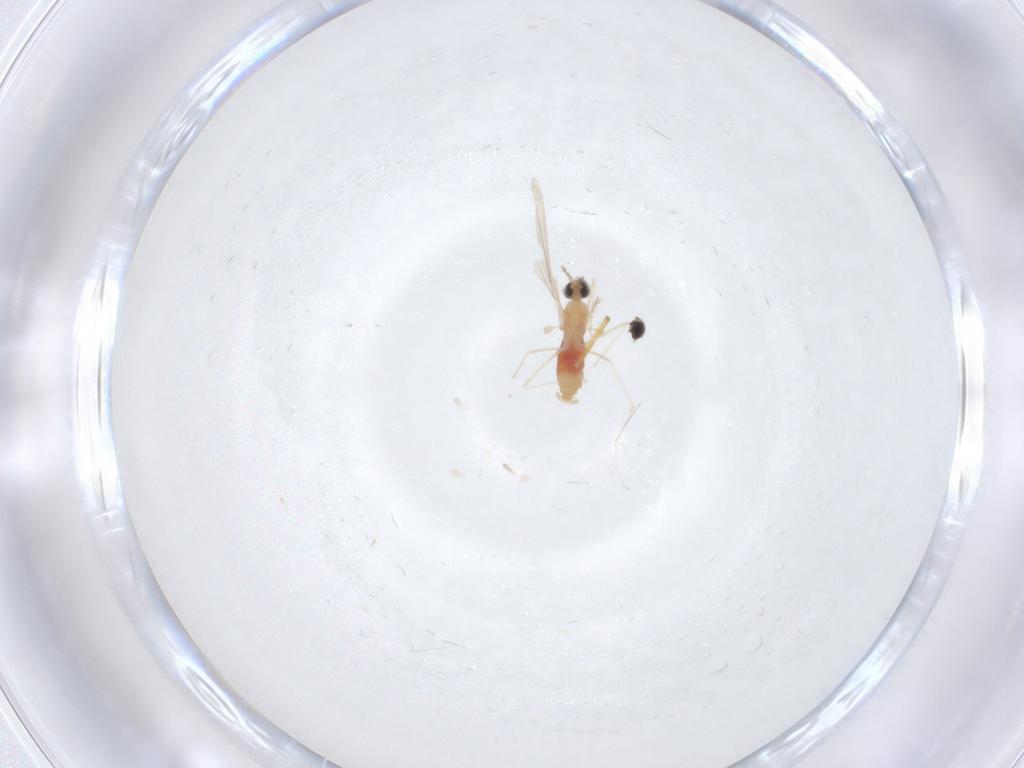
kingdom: Animalia
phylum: Arthropoda
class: Insecta
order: Diptera
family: Cecidomyiidae
